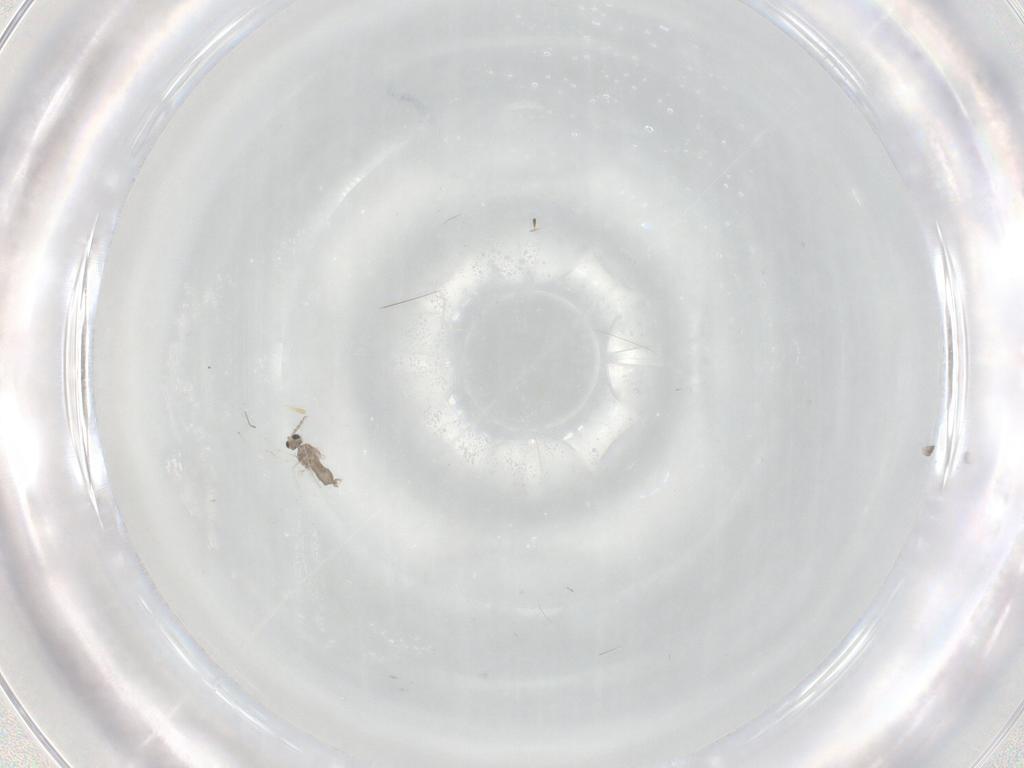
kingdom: Animalia
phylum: Arthropoda
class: Insecta
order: Diptera
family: Cecidomyiidae
